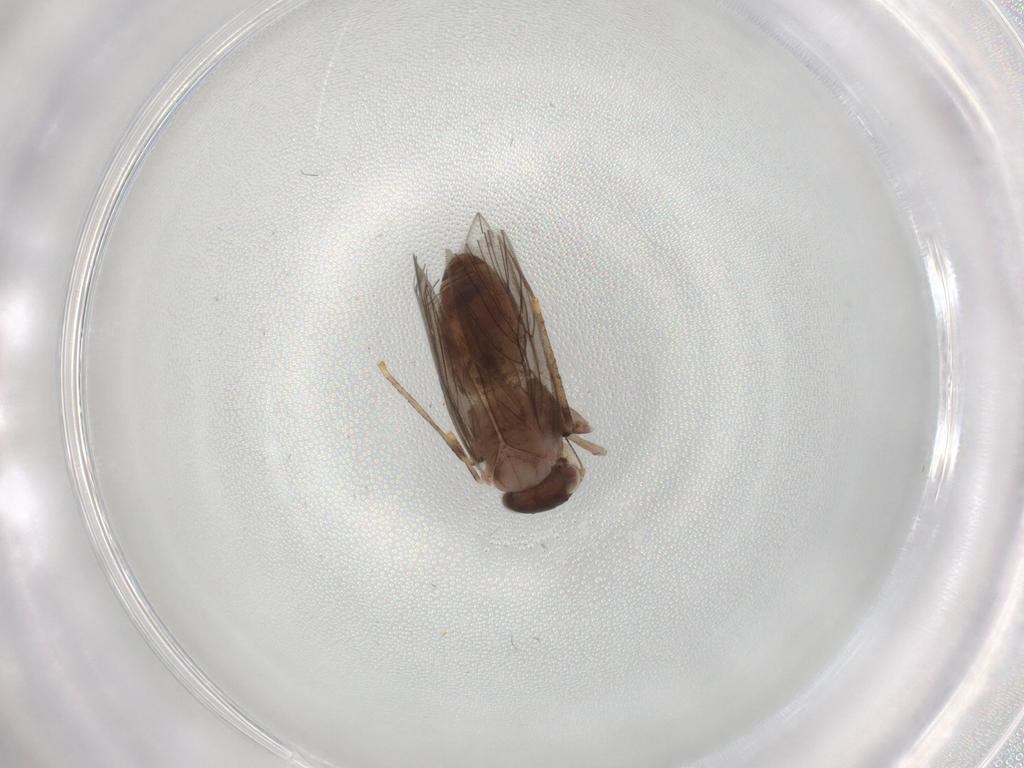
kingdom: Animalia
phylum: Arthropoda
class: Insecta
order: Psocodea
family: Lepidopsocidae
